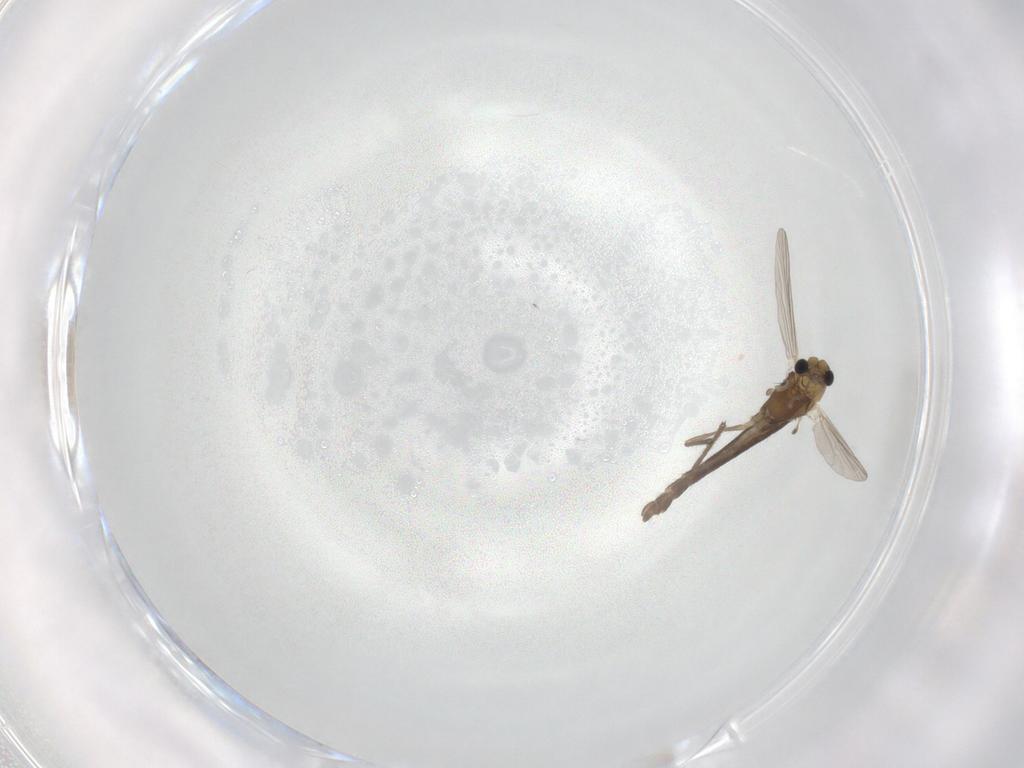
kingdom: Animalia
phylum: Arthropoda
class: Insecta
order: Diptera
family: Chironomidae
